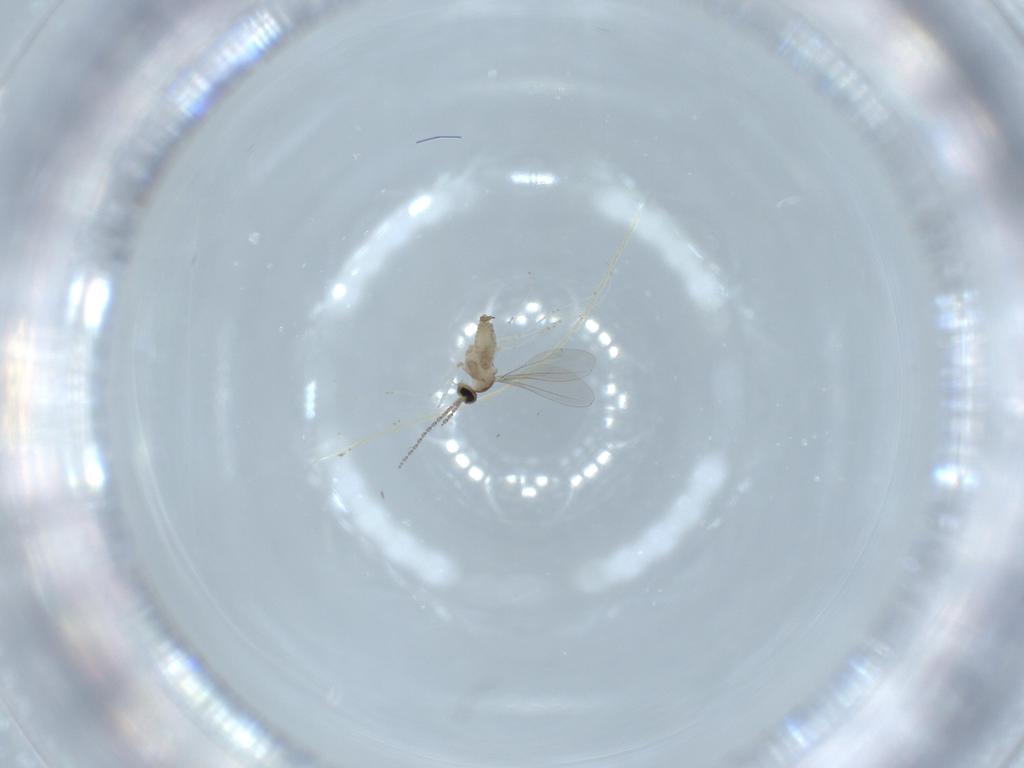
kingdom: Animalia
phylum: Arthropoda
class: Insecta
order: Diptera
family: Cecidomyiidae
